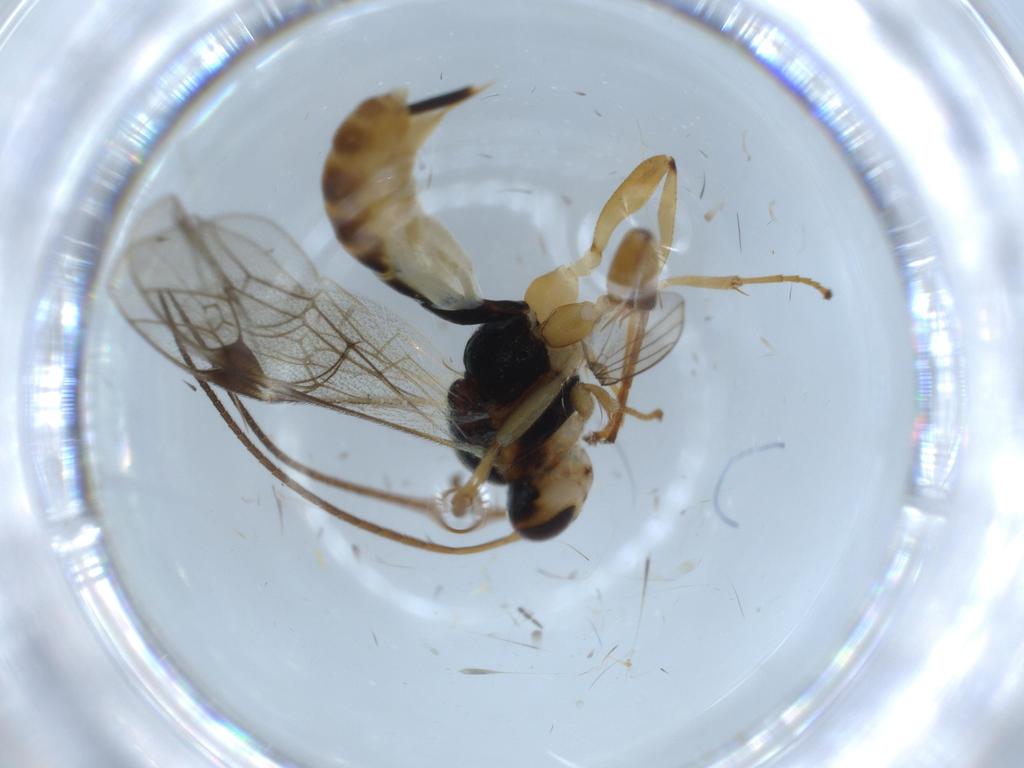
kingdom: Animalia
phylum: Arthropoda
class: Insecta
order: Hymenoptera
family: Ichneumonidae
